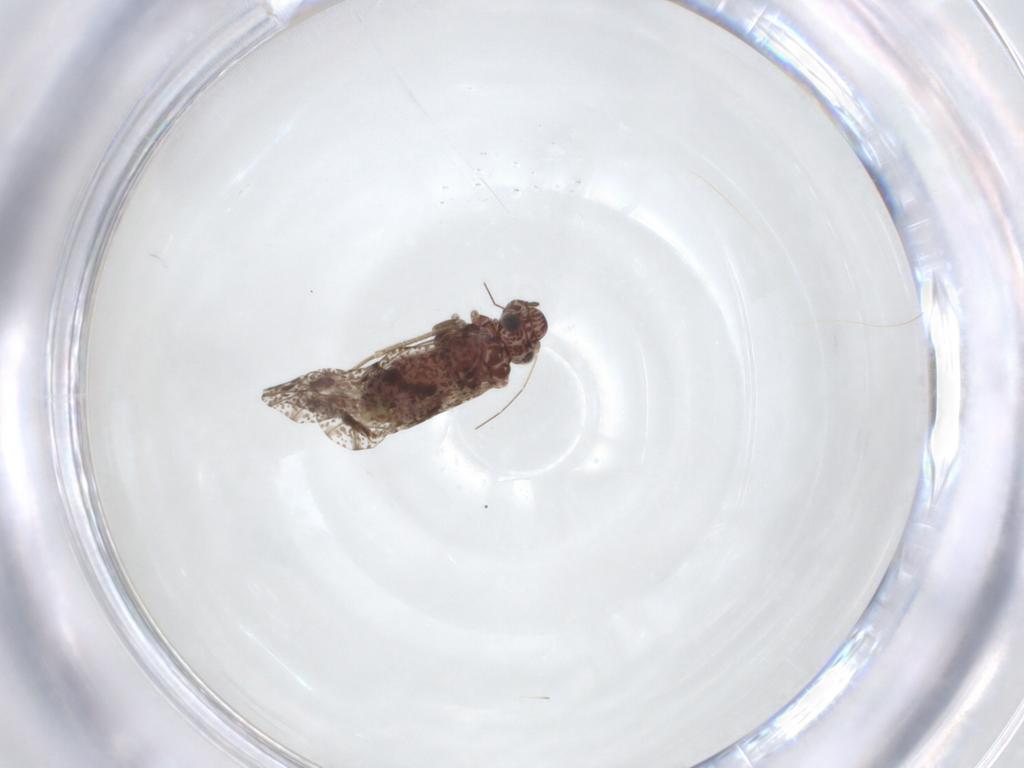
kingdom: Animalia
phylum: Arthropoda
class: Insecta
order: Psocodea
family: Psocidae
